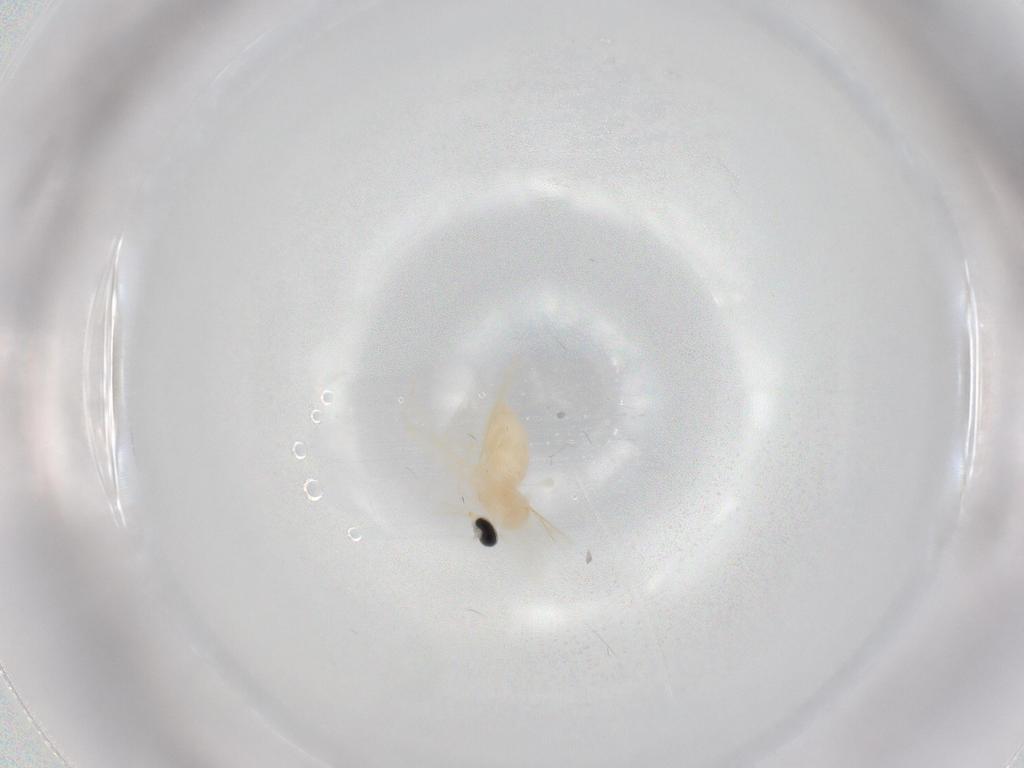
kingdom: Animalia
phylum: Arthropoda
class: Insecta
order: Diptera
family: Cecidomyiidae
